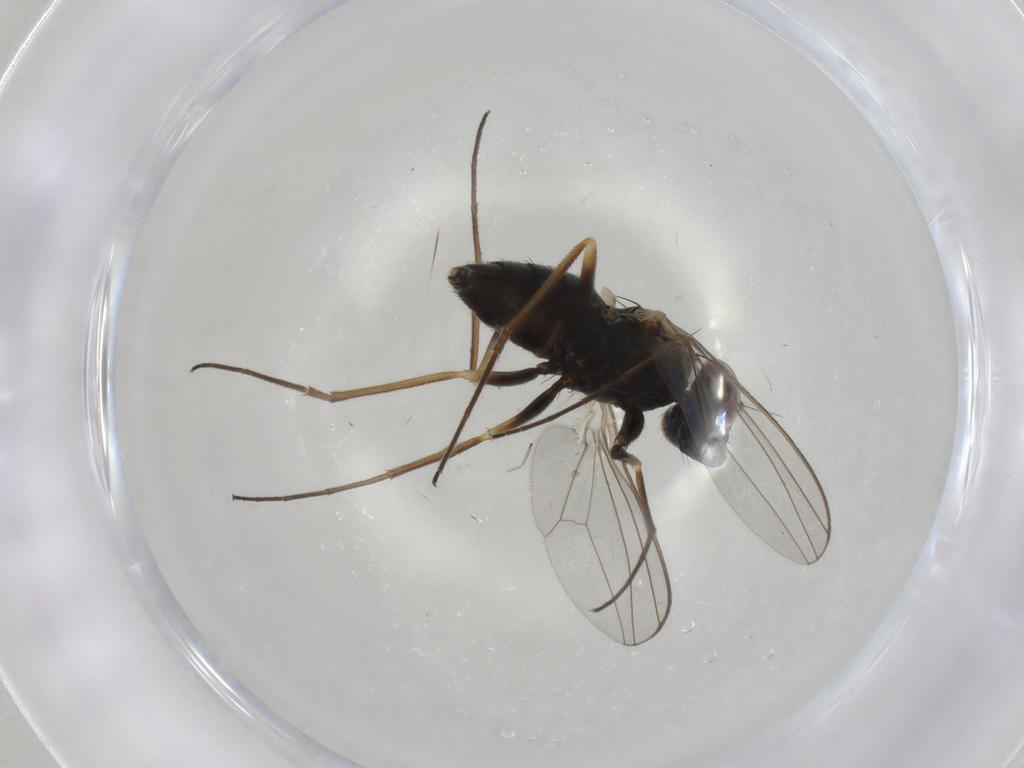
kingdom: Animalia
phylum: Arthropoda
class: Insecta
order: Diptera
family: Dolichopodidae
